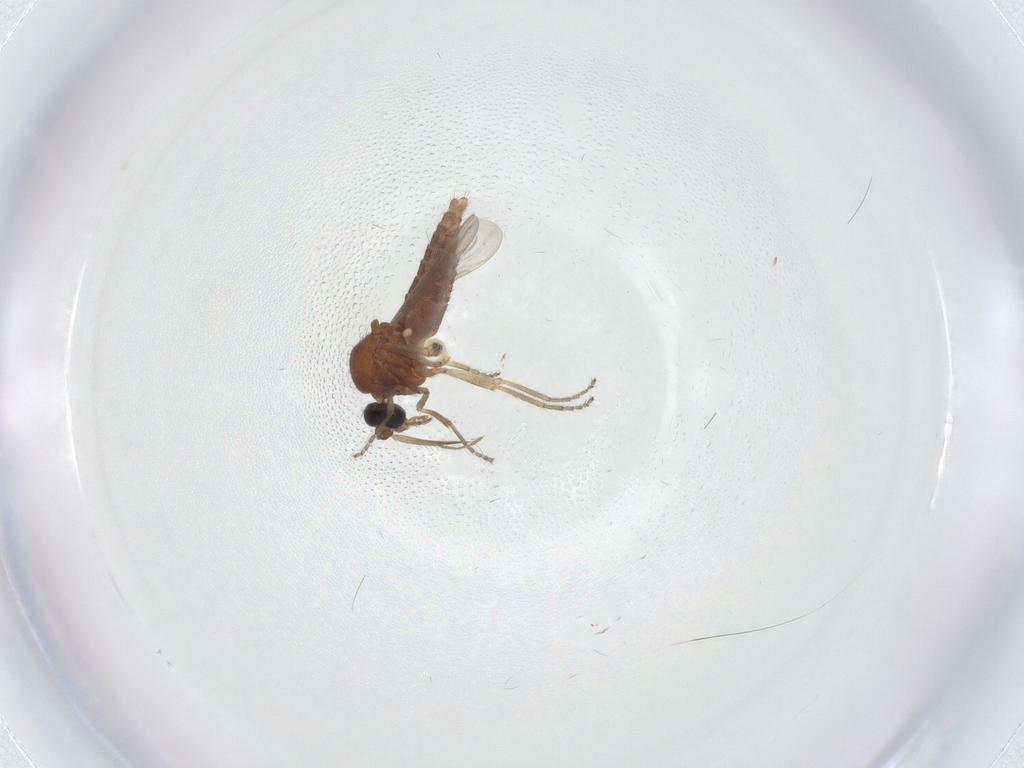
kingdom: Animalia
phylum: Arthropoda
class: Insecta
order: Diptera
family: Ceratopogonidae
